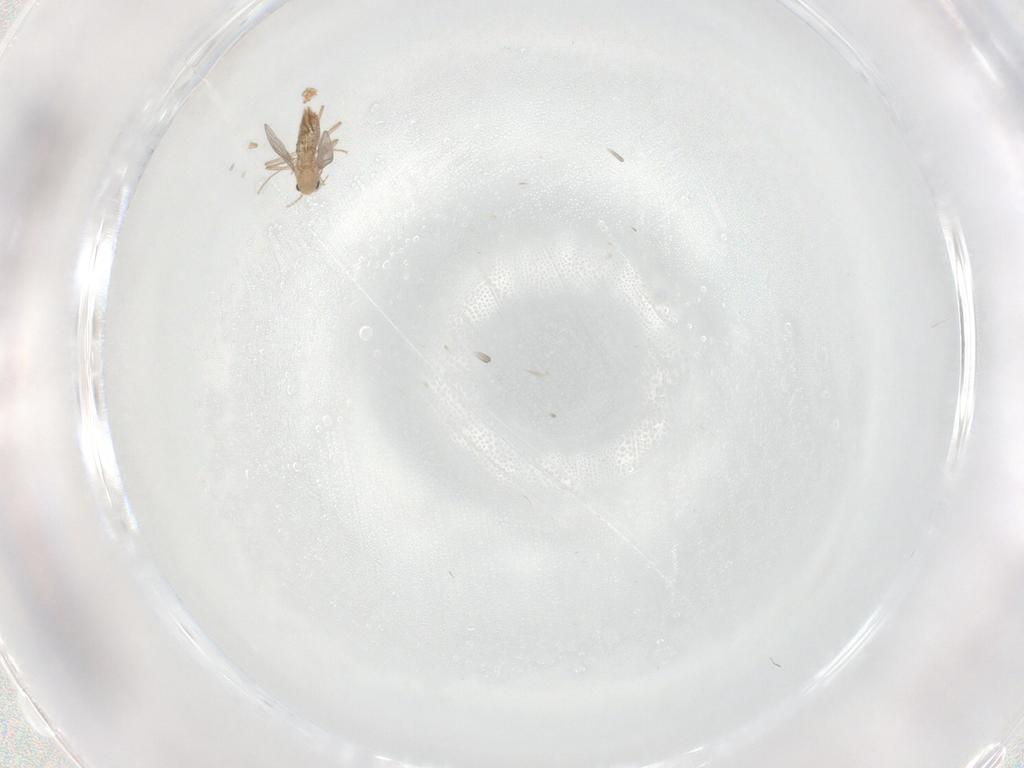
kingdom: Animalia
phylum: Arthropoda
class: Insecta
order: Diptera
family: Chironomidae
